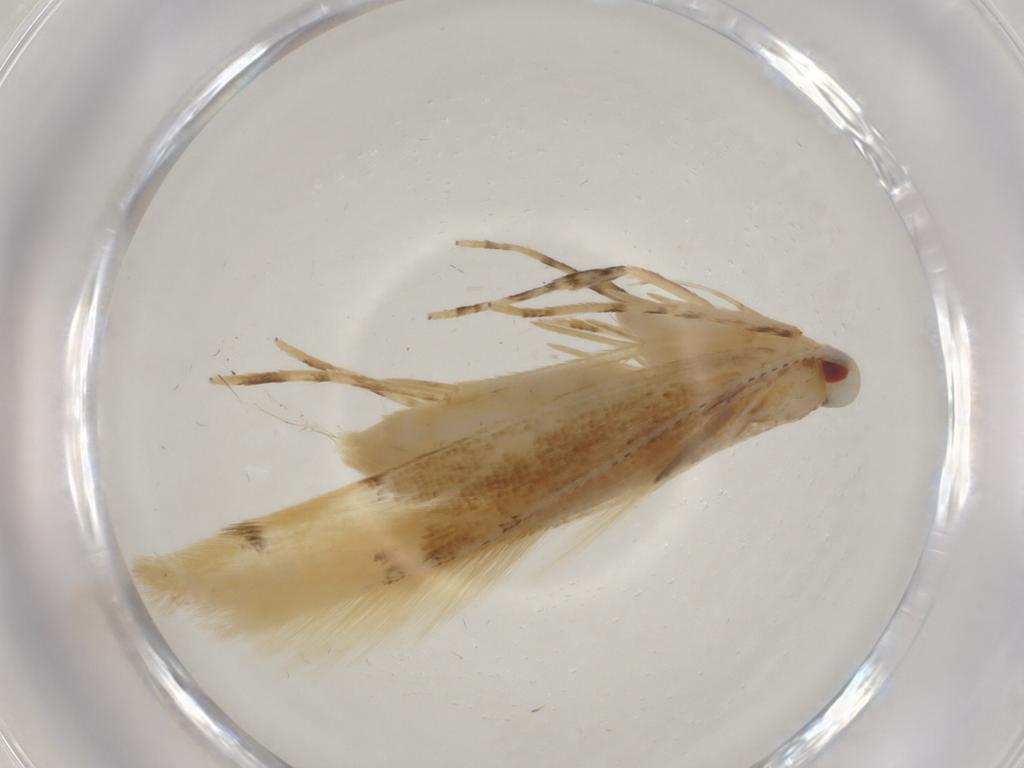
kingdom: Animalia
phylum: Arthropoda
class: Insecta
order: Lepidoptera
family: Cosmopterigidae
